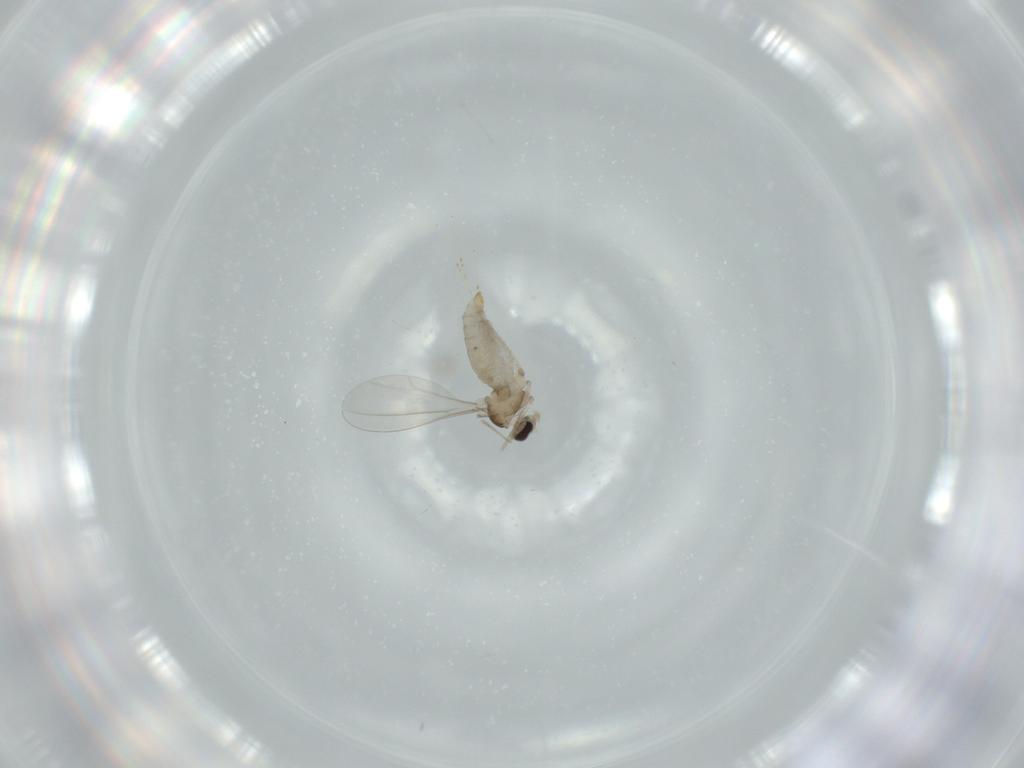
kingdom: Animalia
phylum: Arthropoda
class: Insecta
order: Diptera
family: Cecidomyiidae
